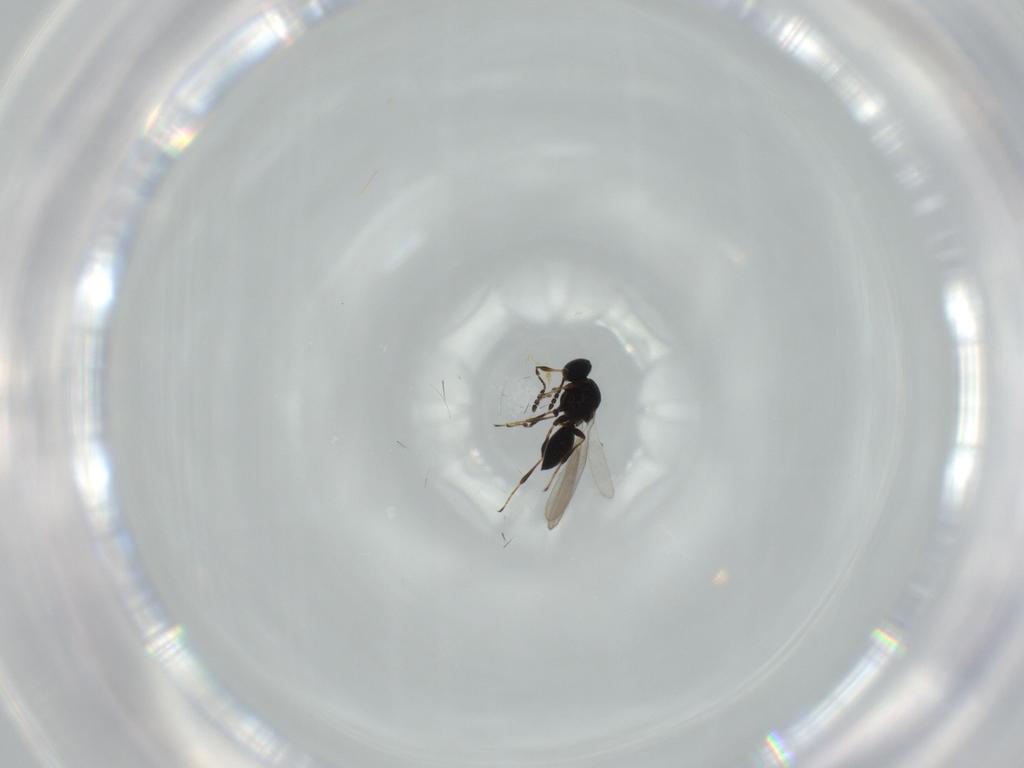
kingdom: Animalia
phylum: Arthropoda
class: Insecta
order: Hymenoptera
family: Platygastridae
